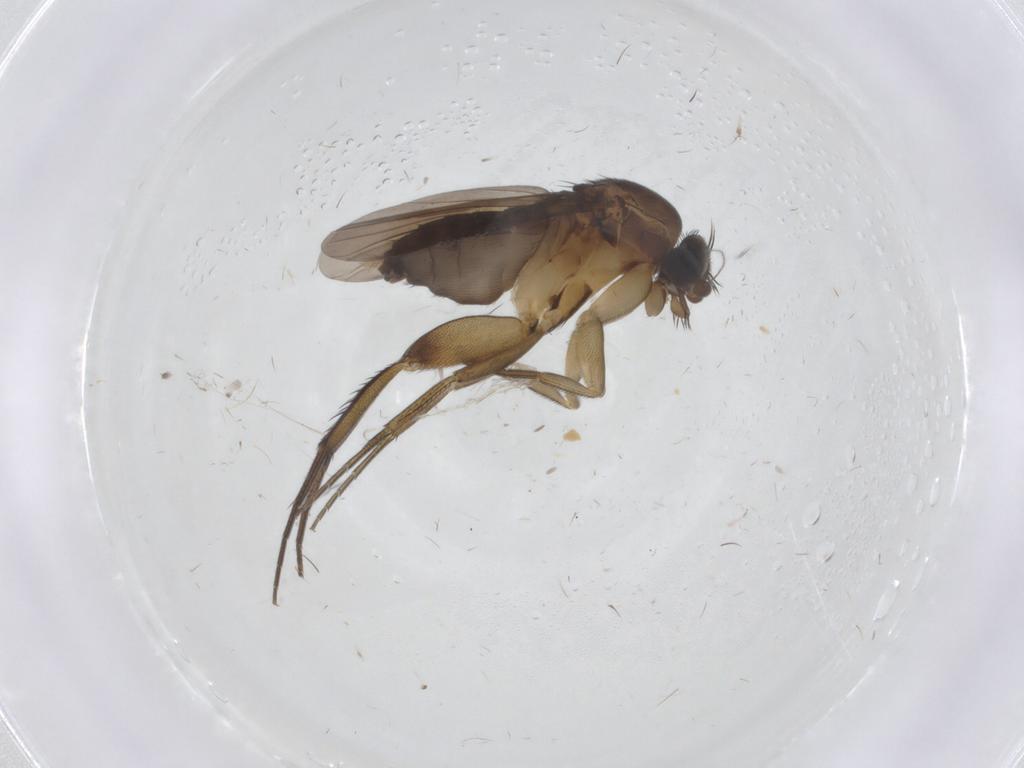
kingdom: Animalia
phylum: Arthropoda
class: Insecta
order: Diptera
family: Phoridae
